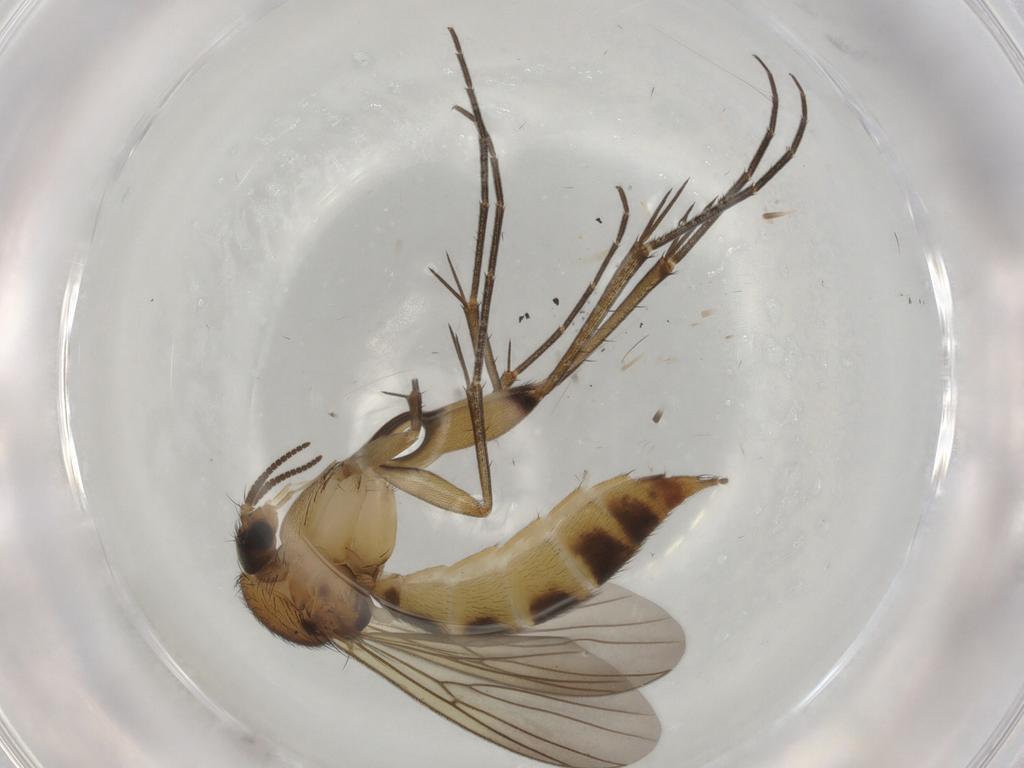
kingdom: Animalia
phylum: Arthropoda
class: Insecta
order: Diptera
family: Mycetophilidae
